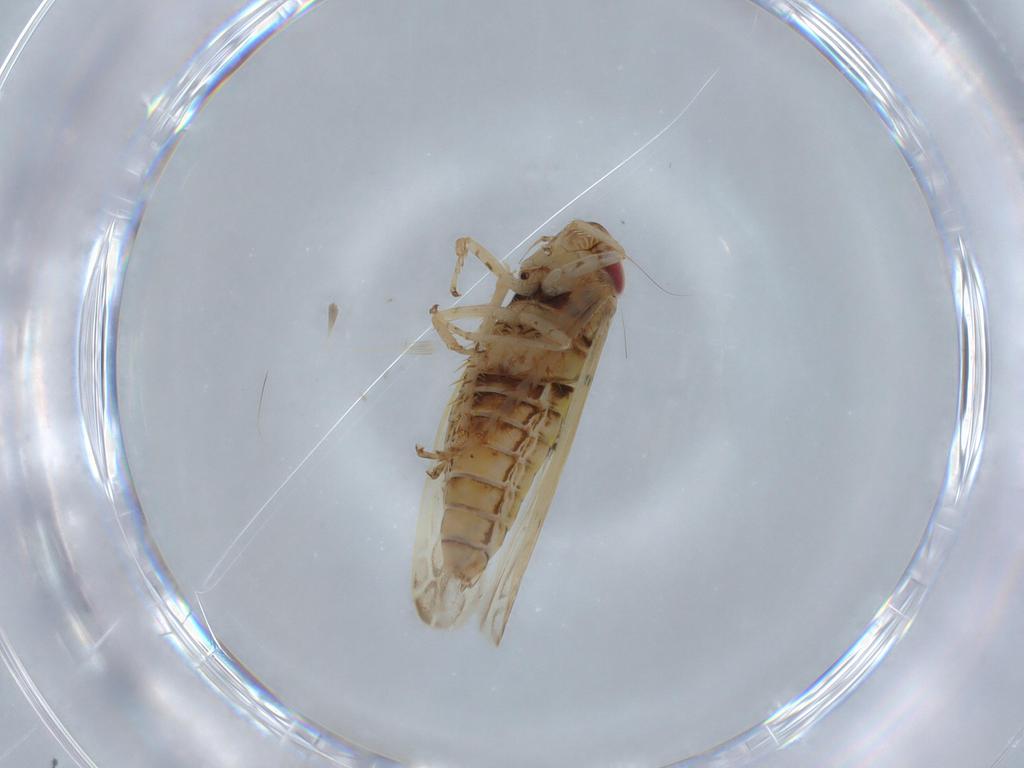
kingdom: Animalia
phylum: Arthropoda
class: Insecta
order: Hemiptera
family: Cicadellidae
